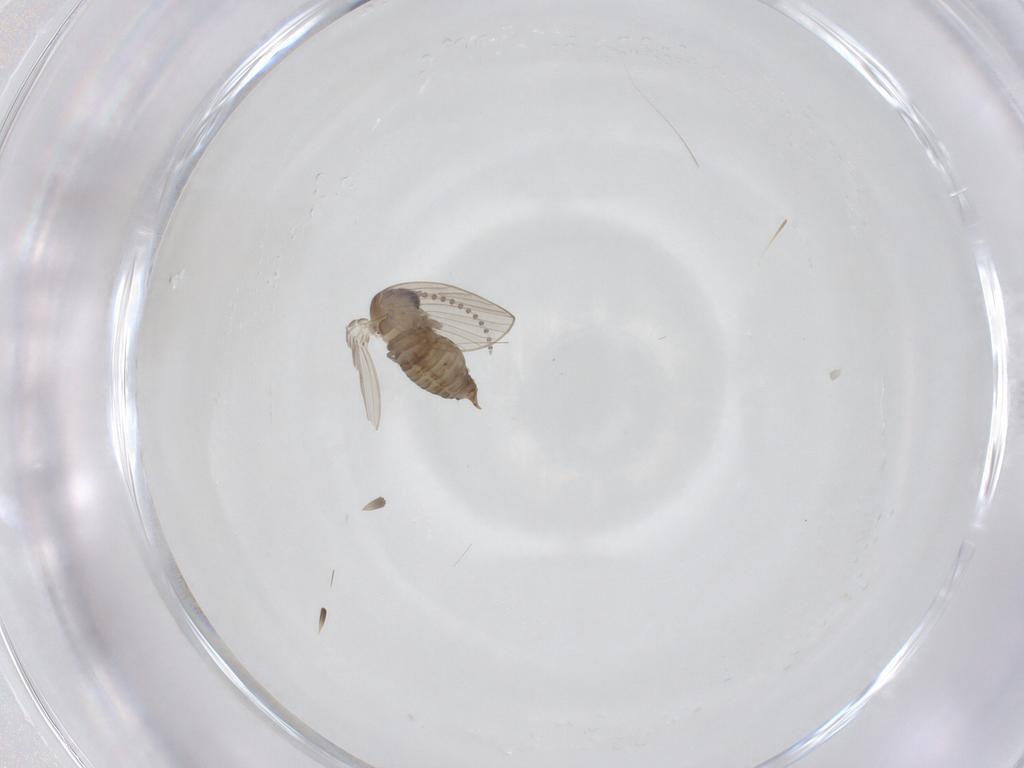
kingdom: Animalia
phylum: Arthropoda
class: Insecta
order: Diptera
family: Psychodidae
